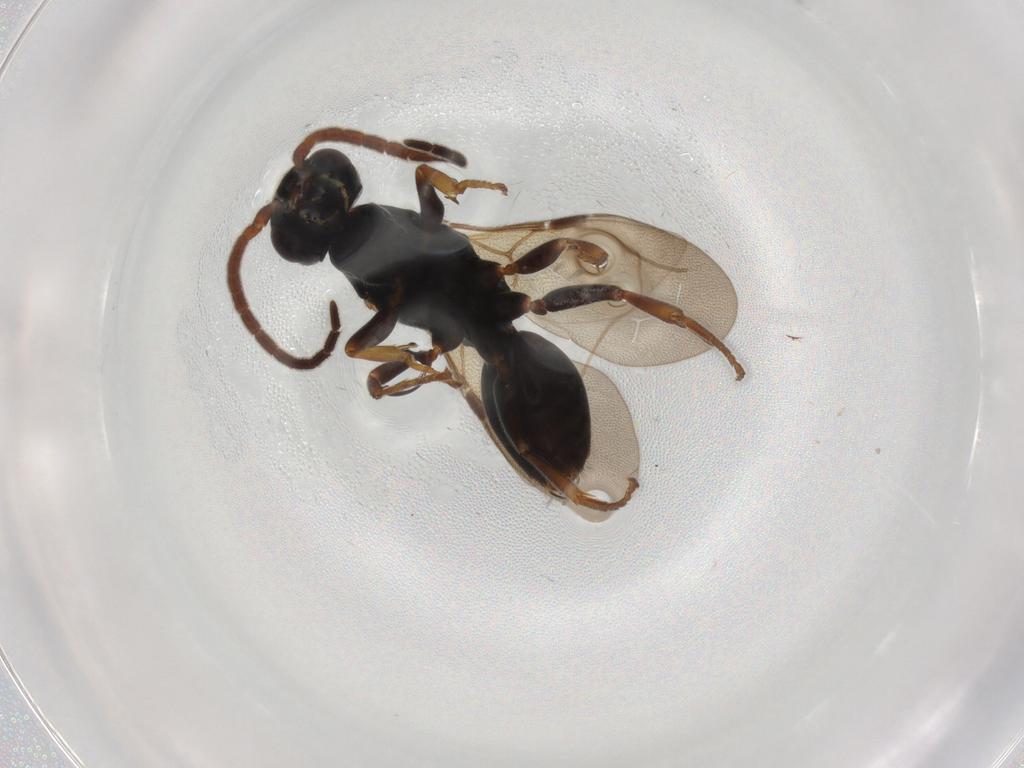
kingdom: Animalia
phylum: Arthropoda
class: Insecta
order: Hymenoptera
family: Bethylidae
